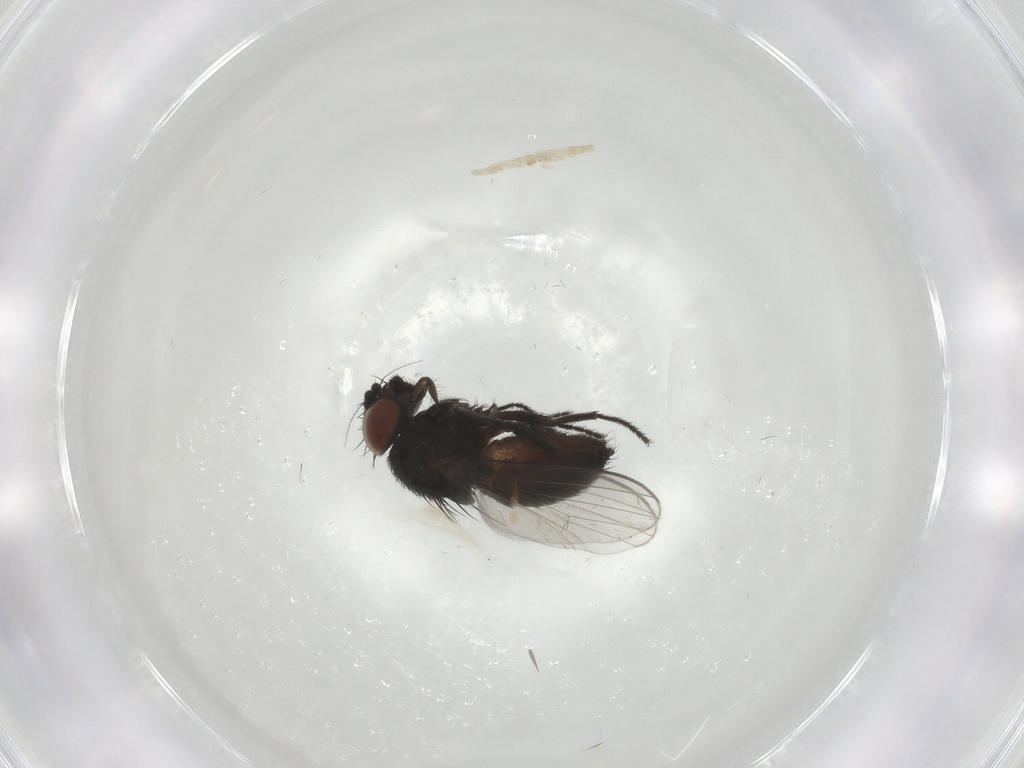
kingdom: Animalia
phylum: Arthropoda
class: Insecta
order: Diptera
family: Milichiidae
